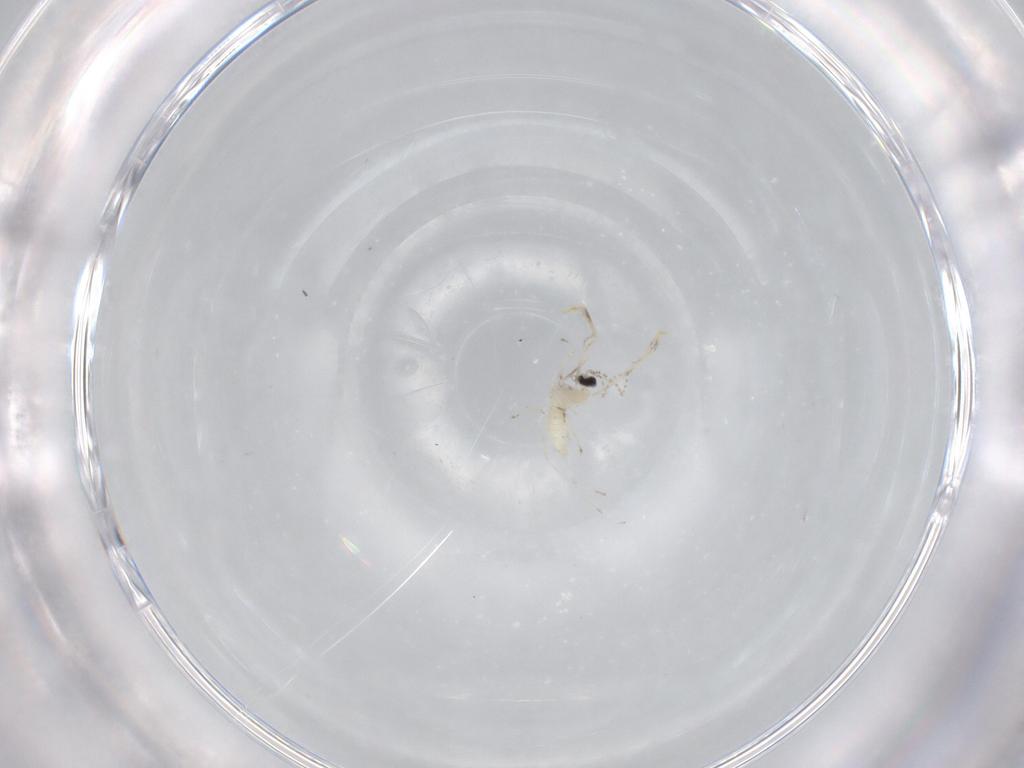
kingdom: Animalia
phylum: Arthropoda
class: Insecta
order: Diptera
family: Cecidomyiidae
